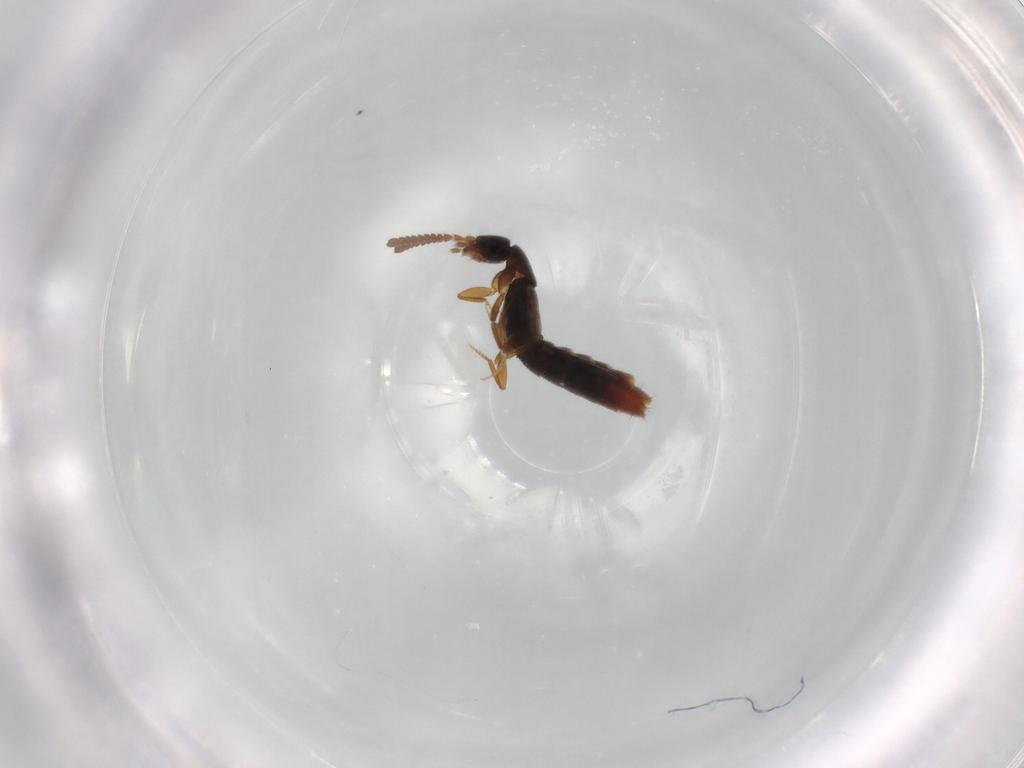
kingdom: Animalia
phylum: Arthropoda
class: Insecta
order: Coleoptera
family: Staphylinidae
